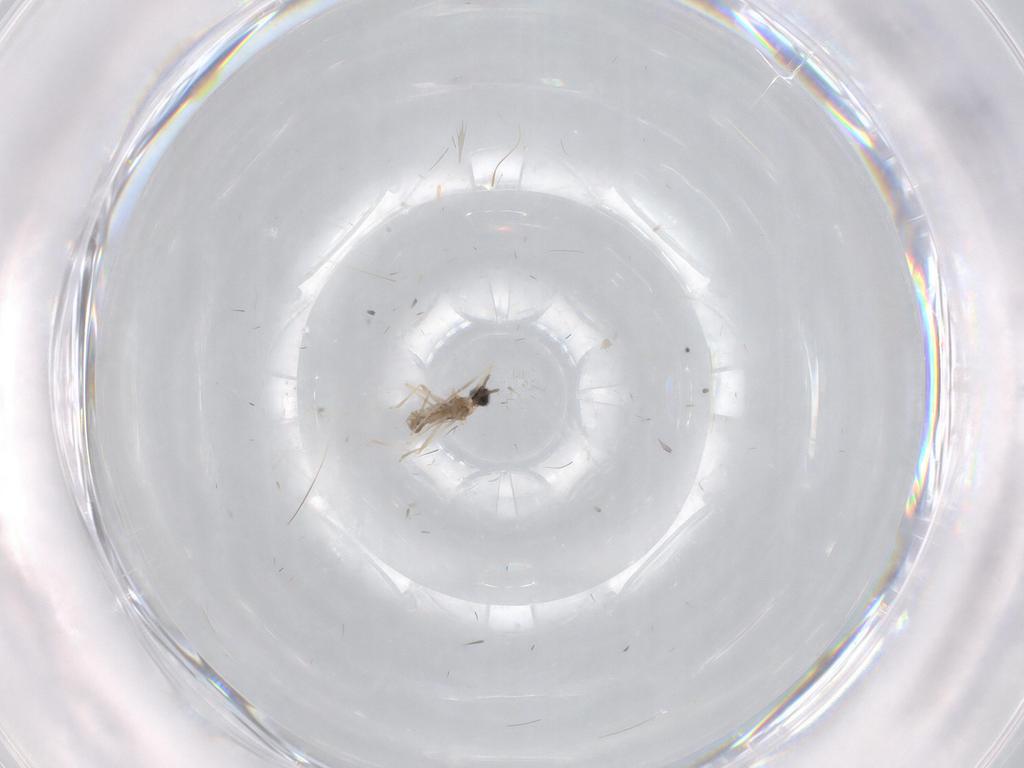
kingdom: Animalia
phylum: Arthropoda
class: Insecta
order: Diptera
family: Cecidomyiidae
